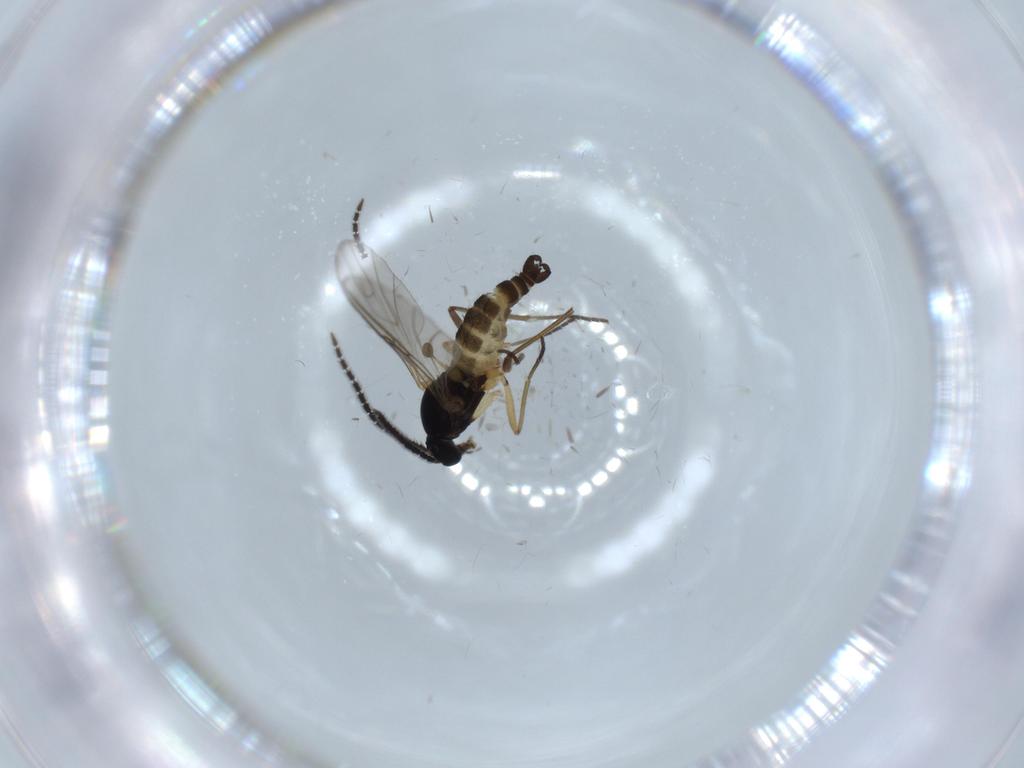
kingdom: Animalia
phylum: Arthropoda
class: Insecta
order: Diptera
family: Sciaridae
